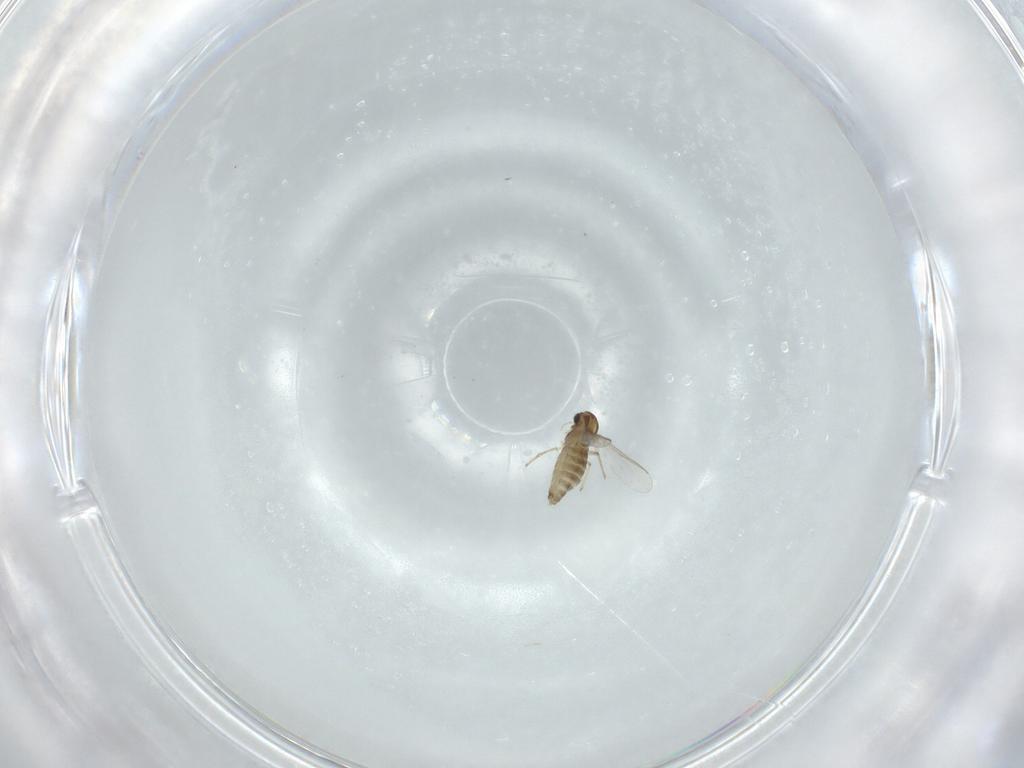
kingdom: Animalia
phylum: Arthropoda
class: Insecta
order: Diptera
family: Chironomidae
